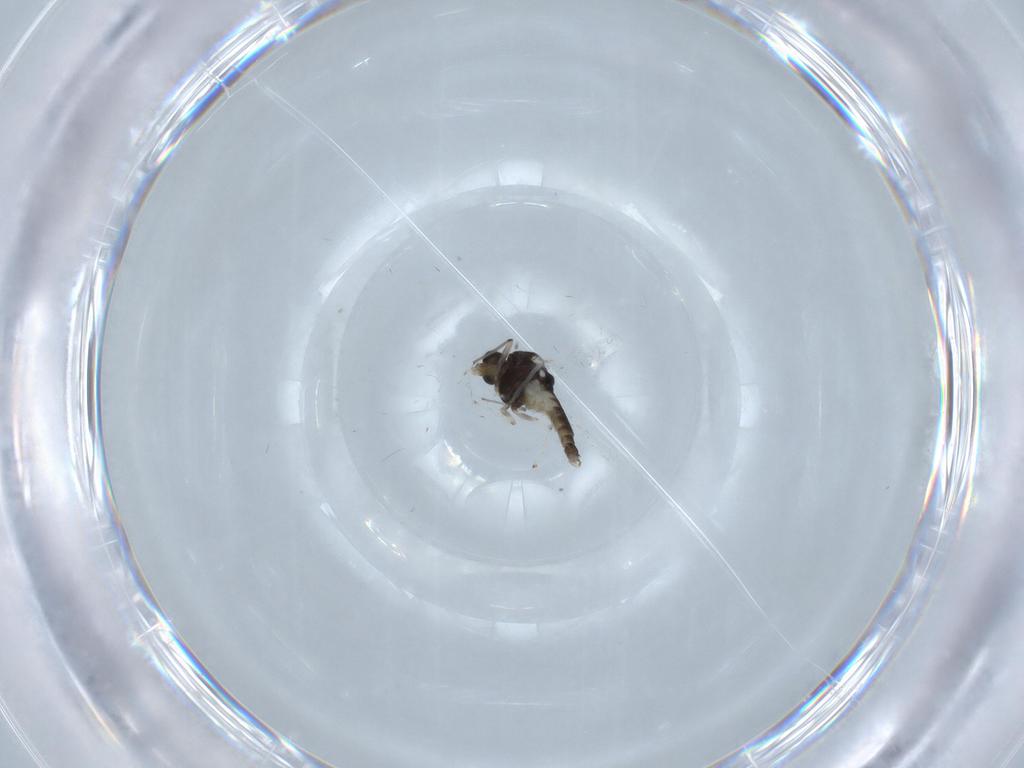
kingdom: Animalia
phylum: Arthropoda
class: Insecta
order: Diptera
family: Chironomidae
